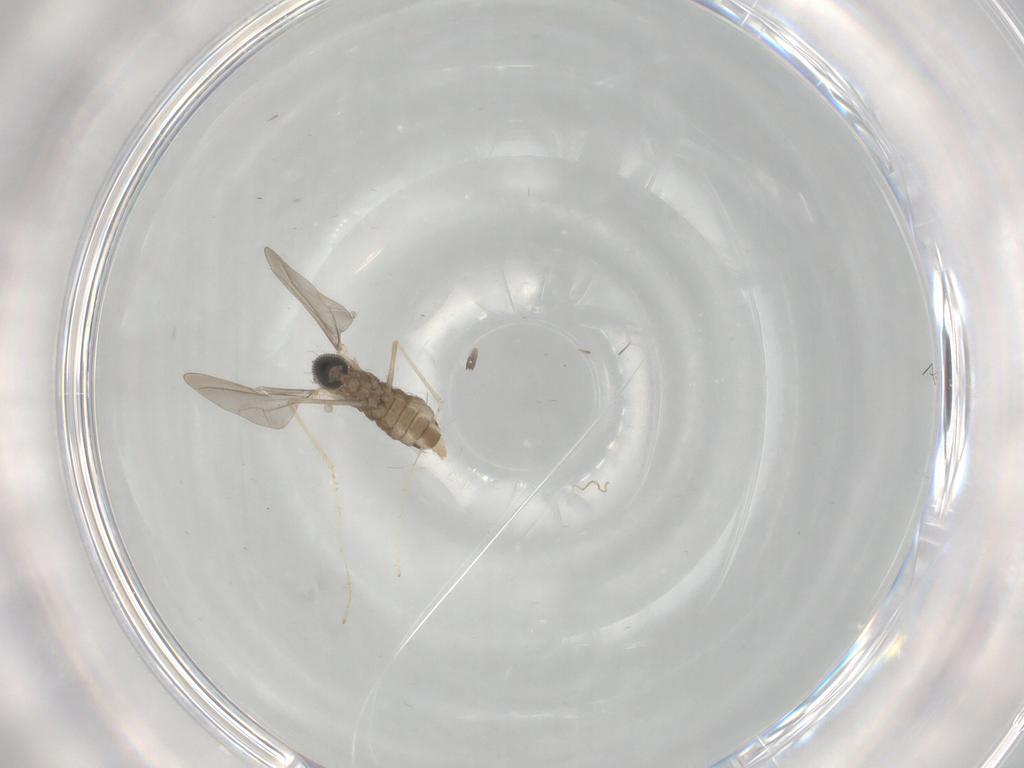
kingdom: Animalia
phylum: Arthropoda
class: Insecta
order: Diptera
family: Cecidomyiidae
